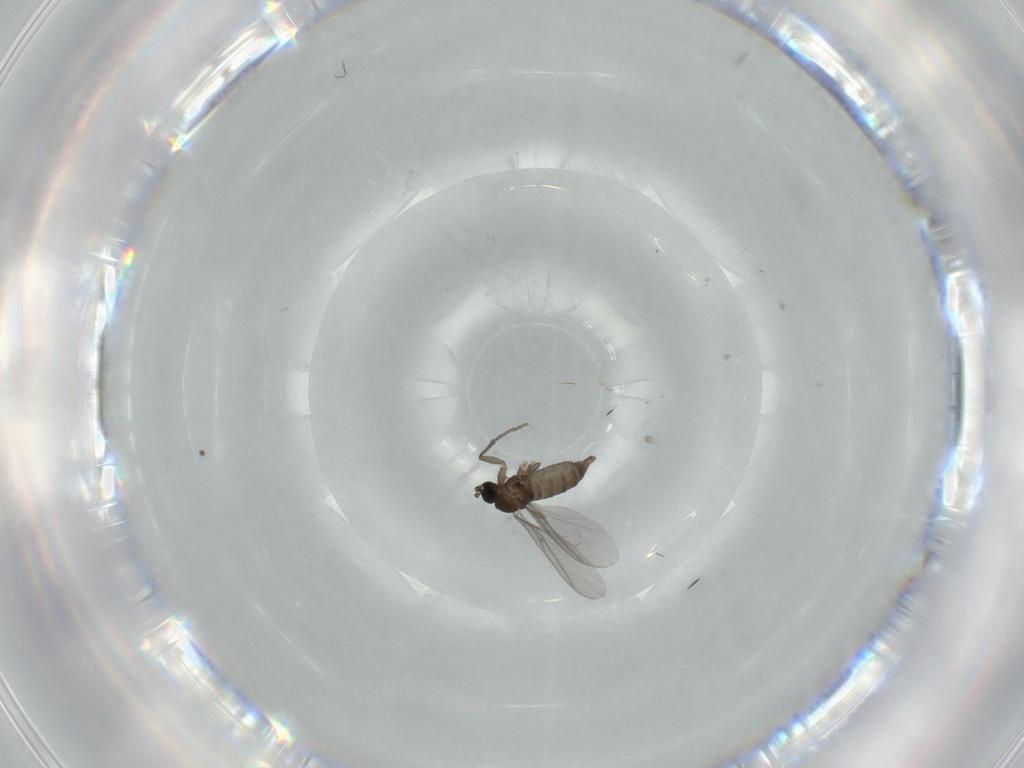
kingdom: Animalia
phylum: Arthropoda
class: Insecta
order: Diptera
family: Sciaridae
